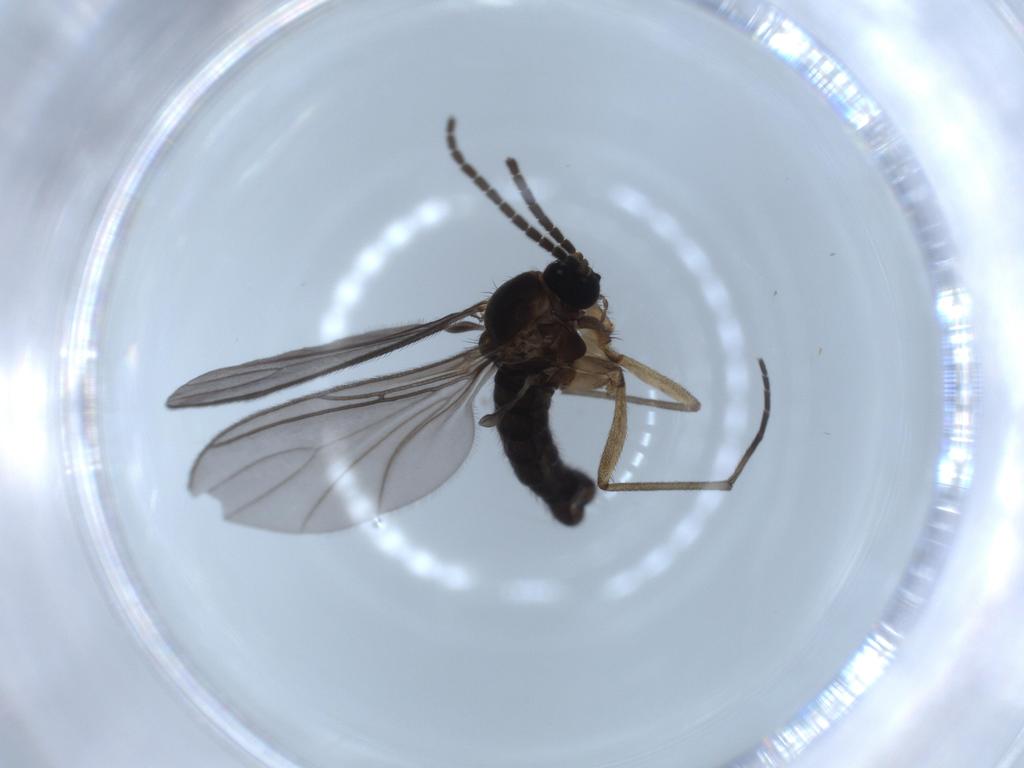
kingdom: Animalia
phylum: Arthropoda
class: Insecta
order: Diptera
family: Sciaridae
